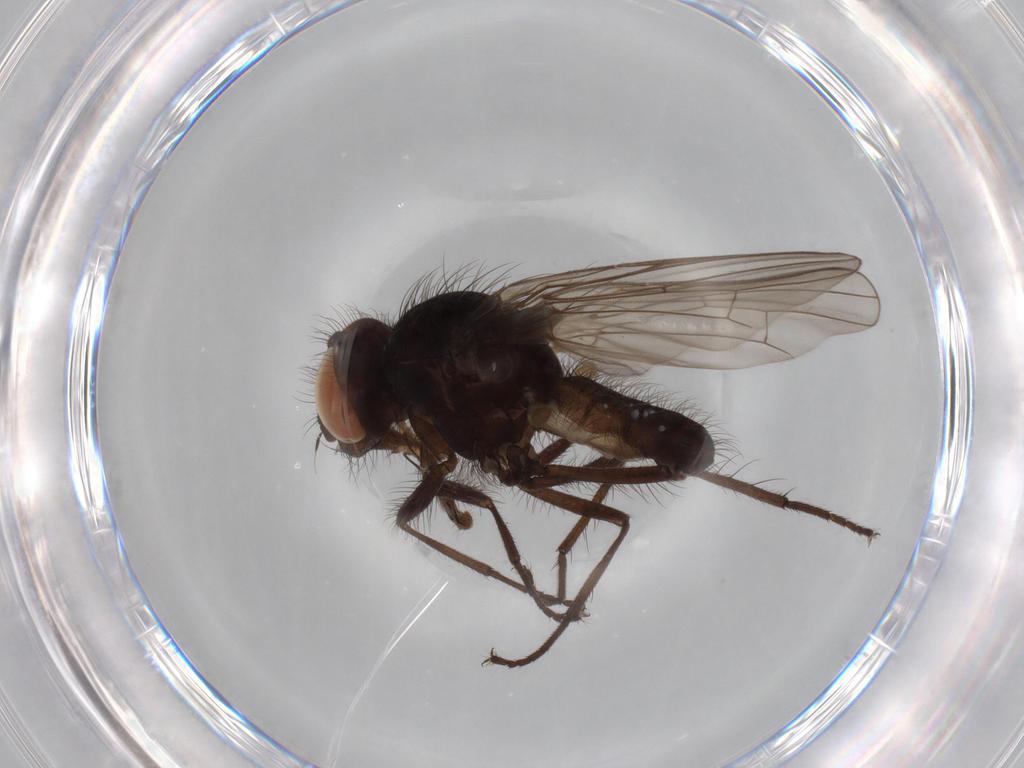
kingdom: Animalia
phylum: Arthropoda
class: Insecta
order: Diptera
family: Anthomyiidae
